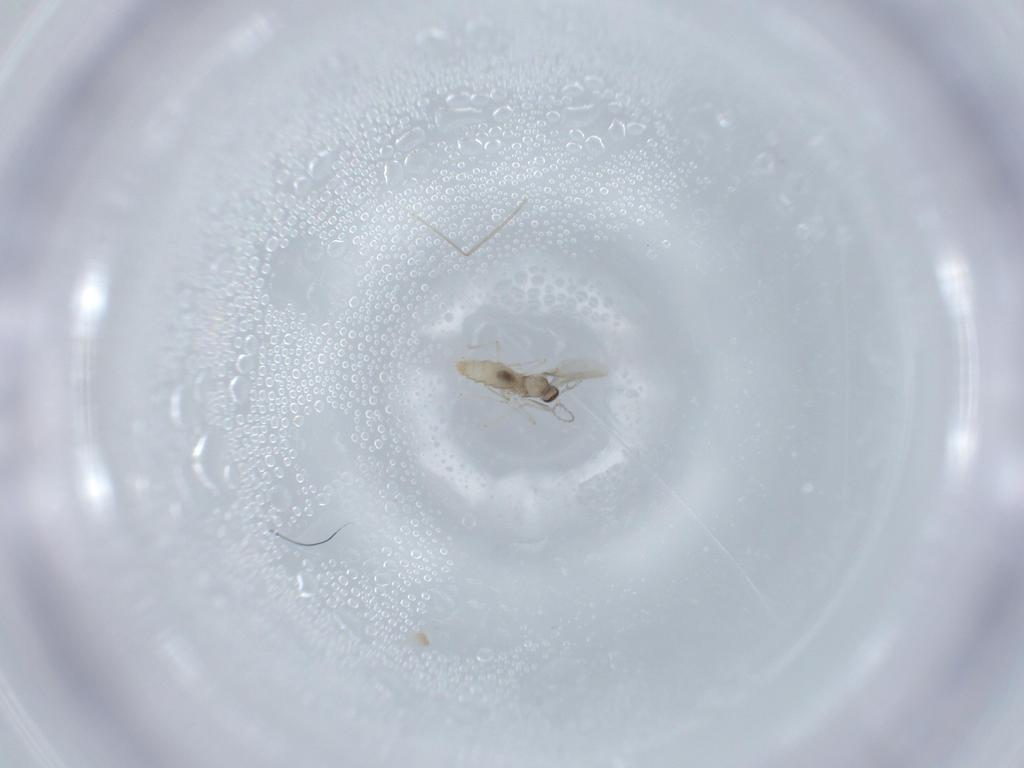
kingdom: Animalia
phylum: Arthropoda
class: Insecta
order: Diptera
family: Cecidomyiidae
